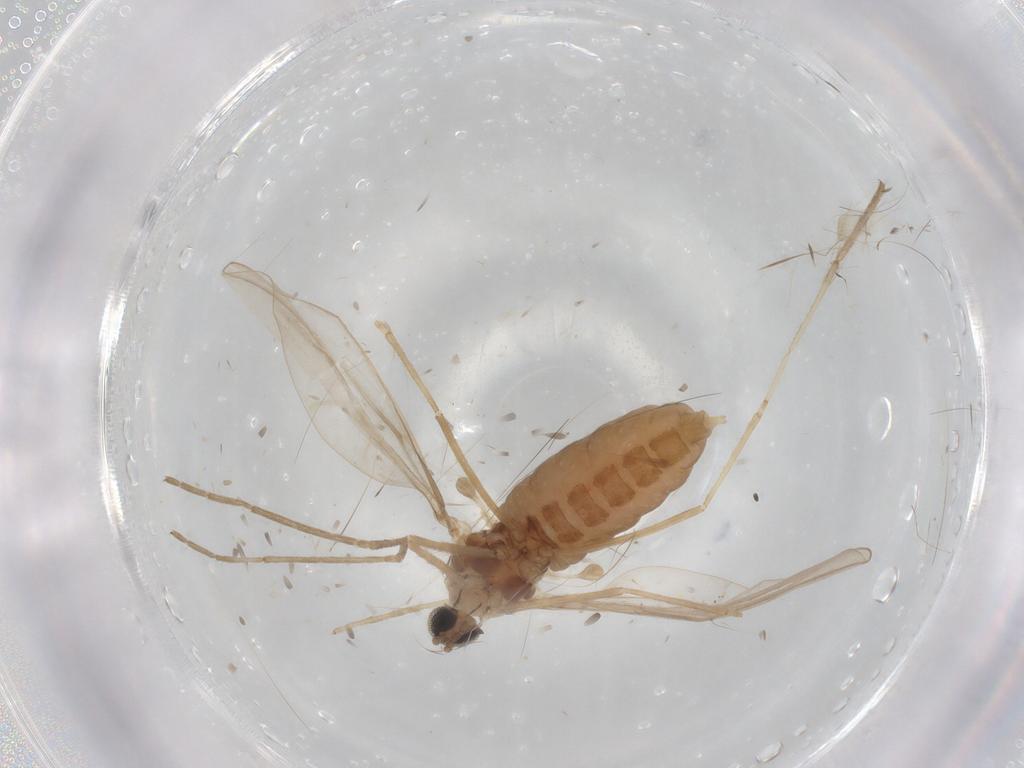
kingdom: Animalia
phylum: Arthropoda
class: Insecta
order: Diptera
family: Cecidomyiidae
